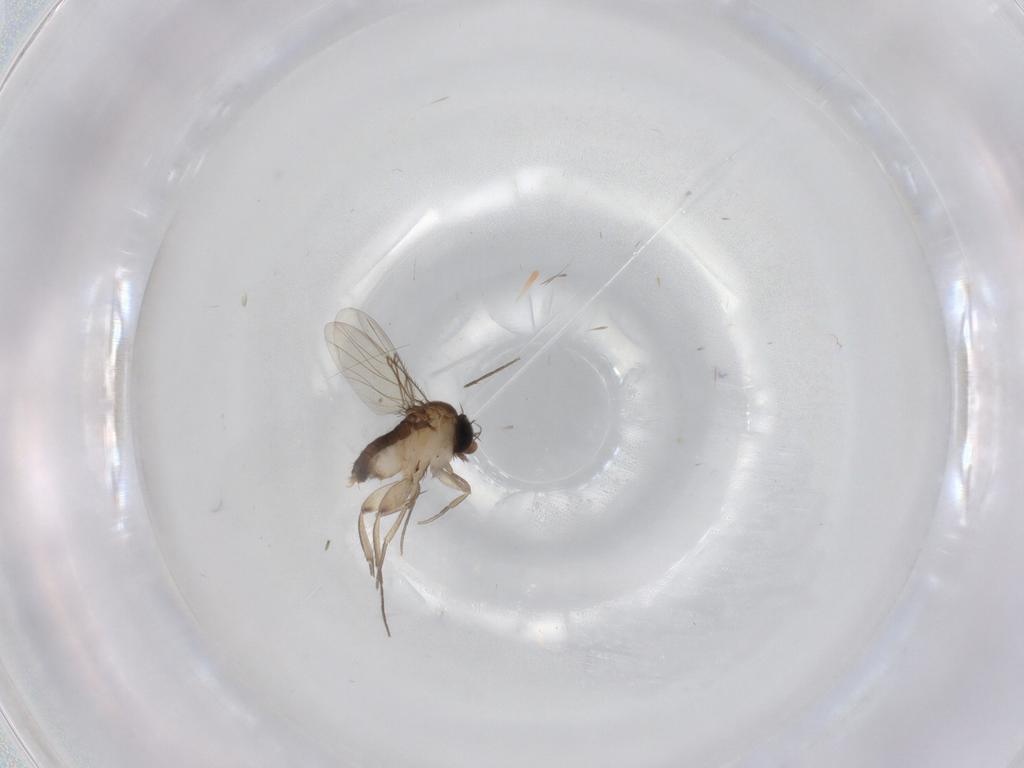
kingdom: Animalia
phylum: Arthropoda
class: Insecta
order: Diptera
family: Phoridae
